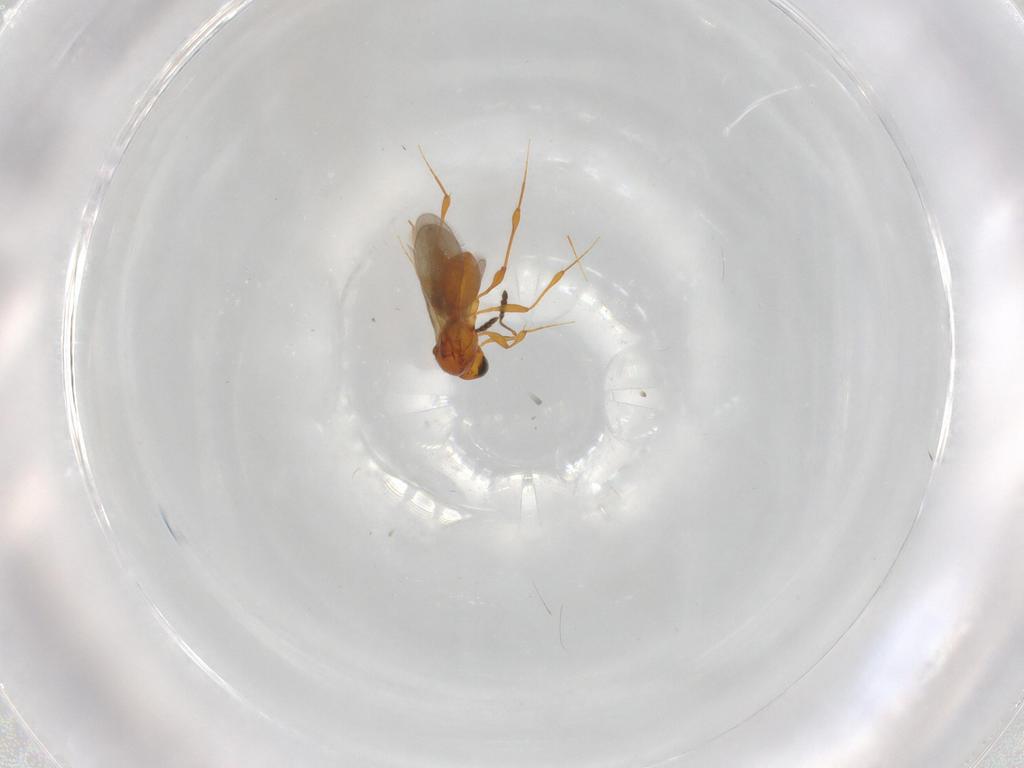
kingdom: Animalia
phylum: Arthropoda
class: Insecta
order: Hymenoptera
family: Platygastridae
